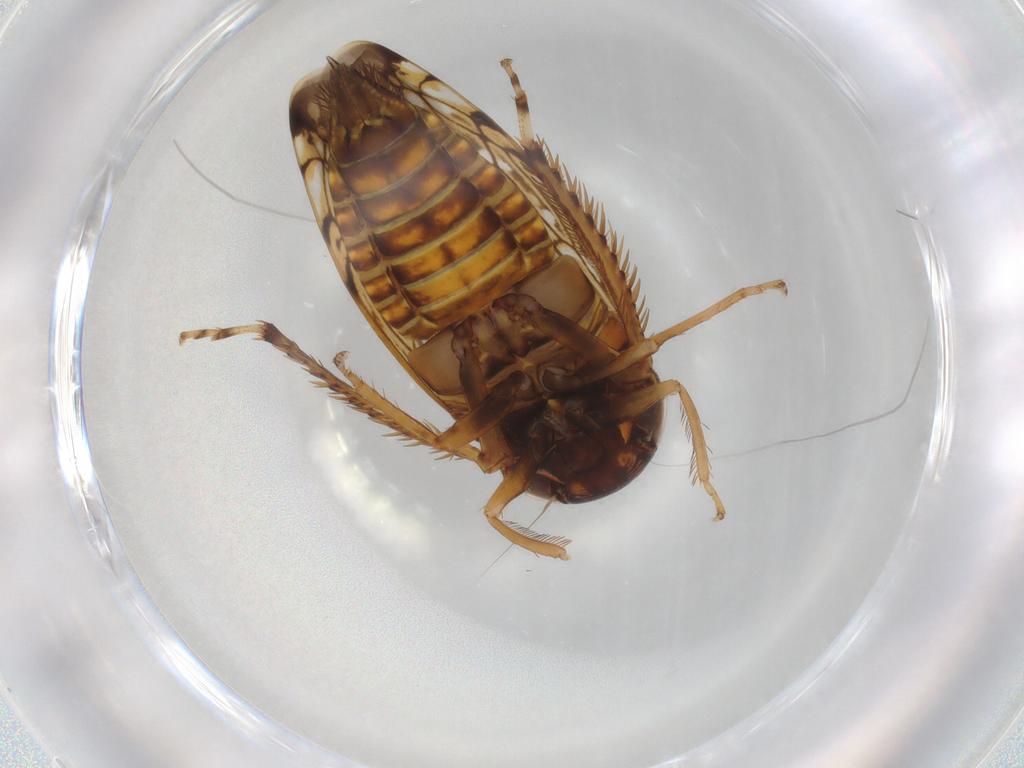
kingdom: Animalia
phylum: Arthropoda
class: Insecta
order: Hemiptera
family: Cicadellidae
